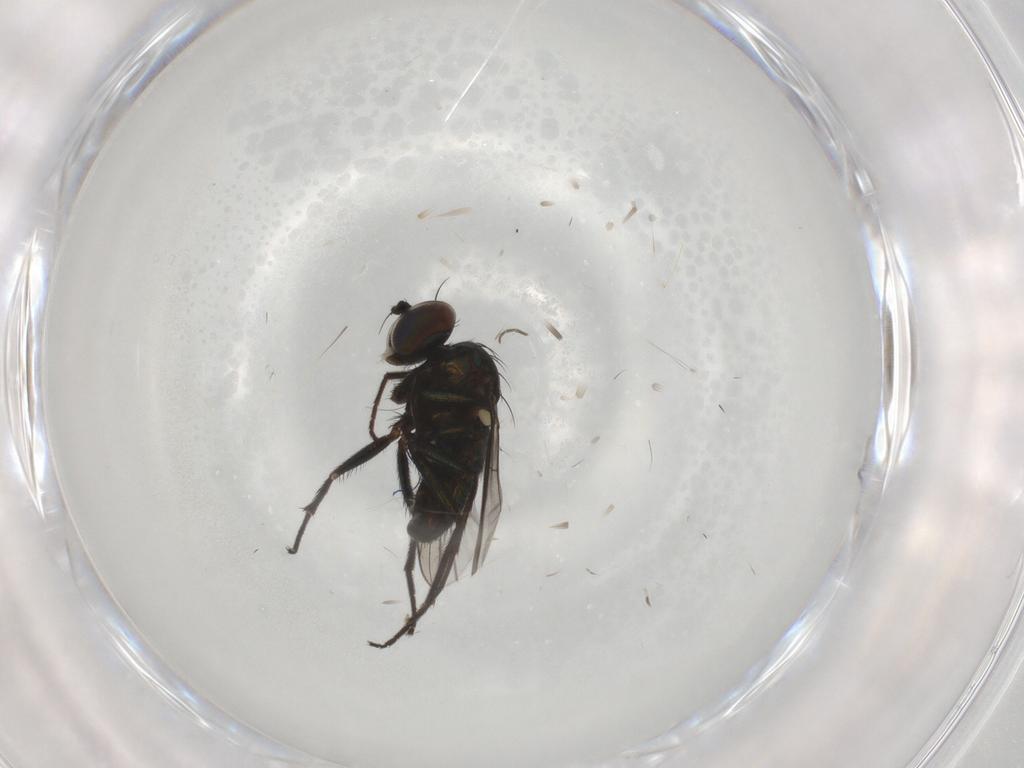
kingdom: Animalia
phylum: Arthropoda
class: Insecta
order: Diptera
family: Dolichopodidae
